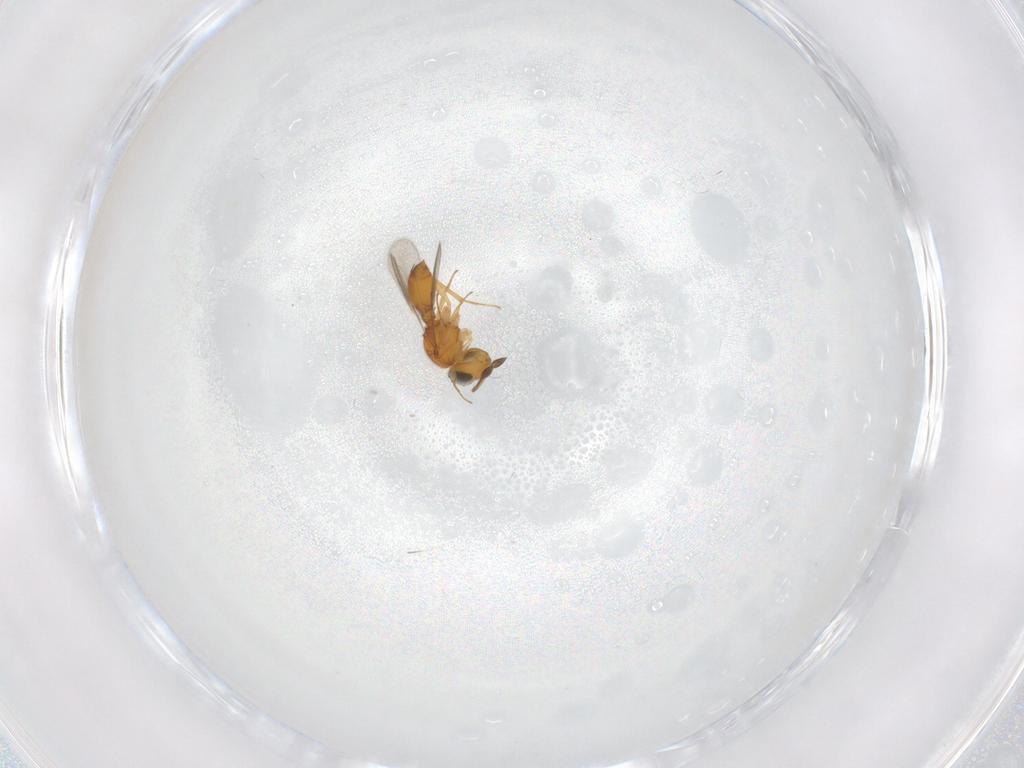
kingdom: Animalia
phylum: Arthropoda
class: Insecta
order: Hymenoptera
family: Scelionidae
